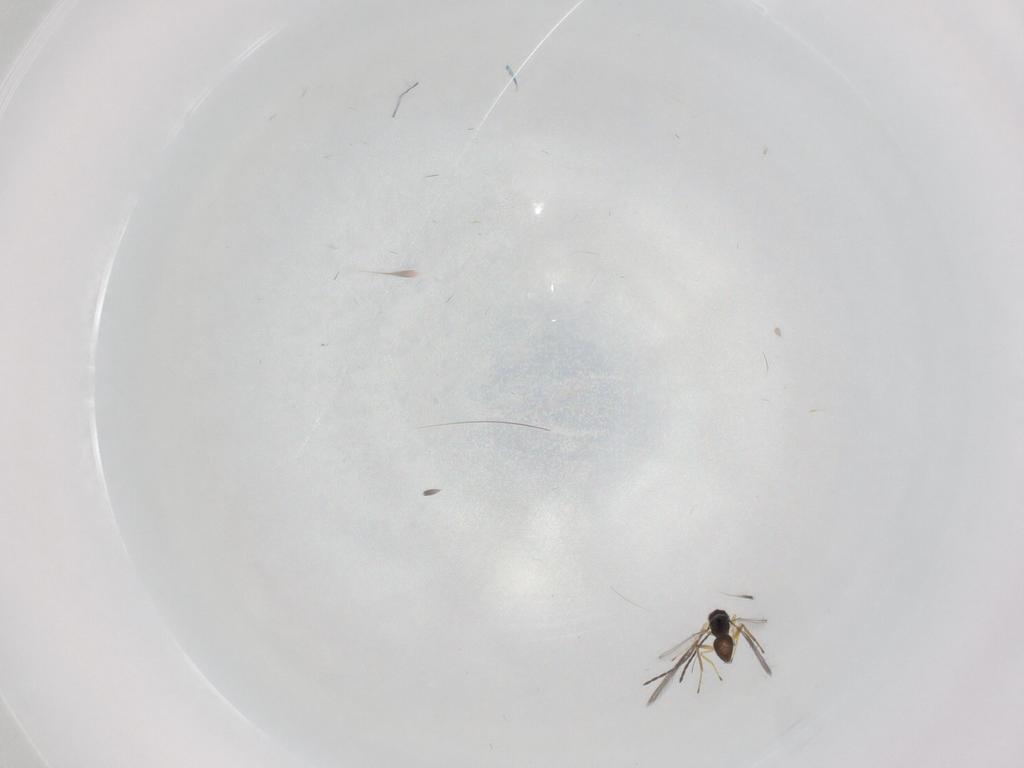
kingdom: Animalia
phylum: Arthropoda
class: Insecta
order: Hymenoptera
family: Mymaridae
